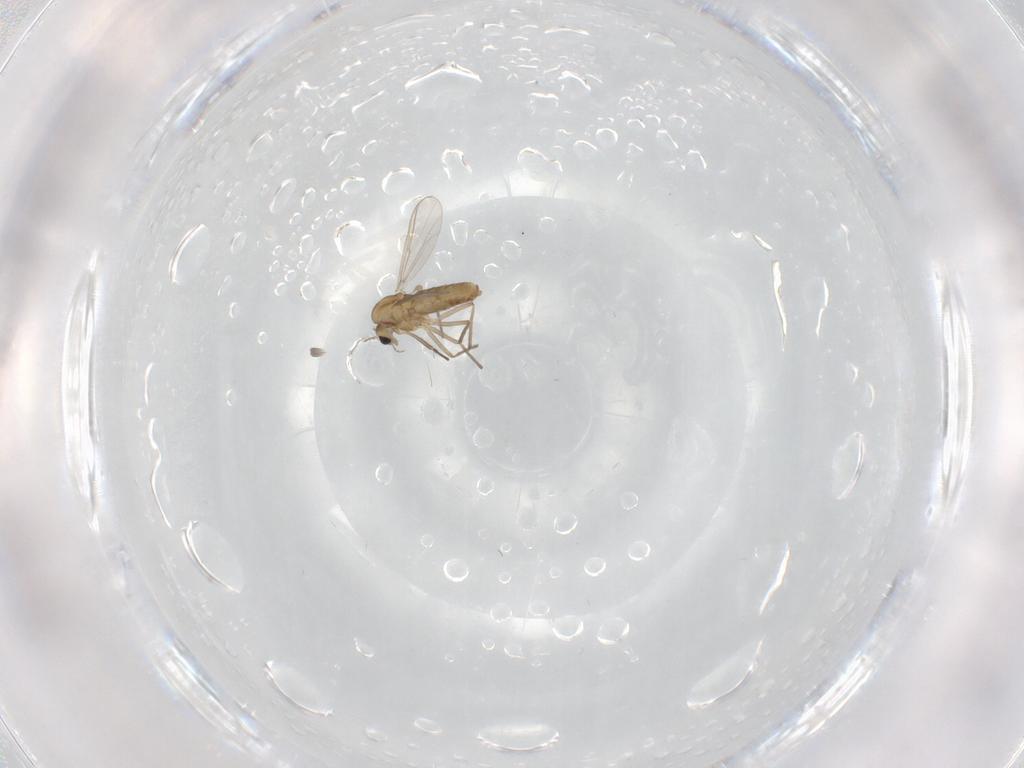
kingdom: Animalia
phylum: Arthropoda
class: Insecta
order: Diptera
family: Chironomidae
